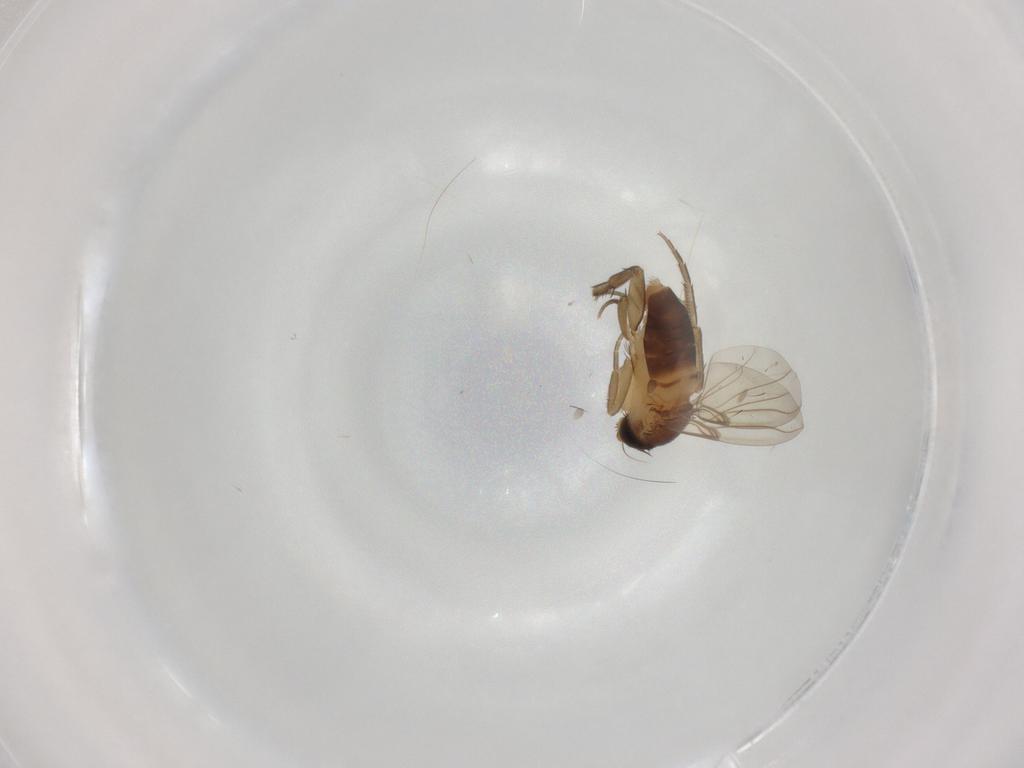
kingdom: Animalia
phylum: Arthropoda
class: Insecta
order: Diptera
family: Phoridae
